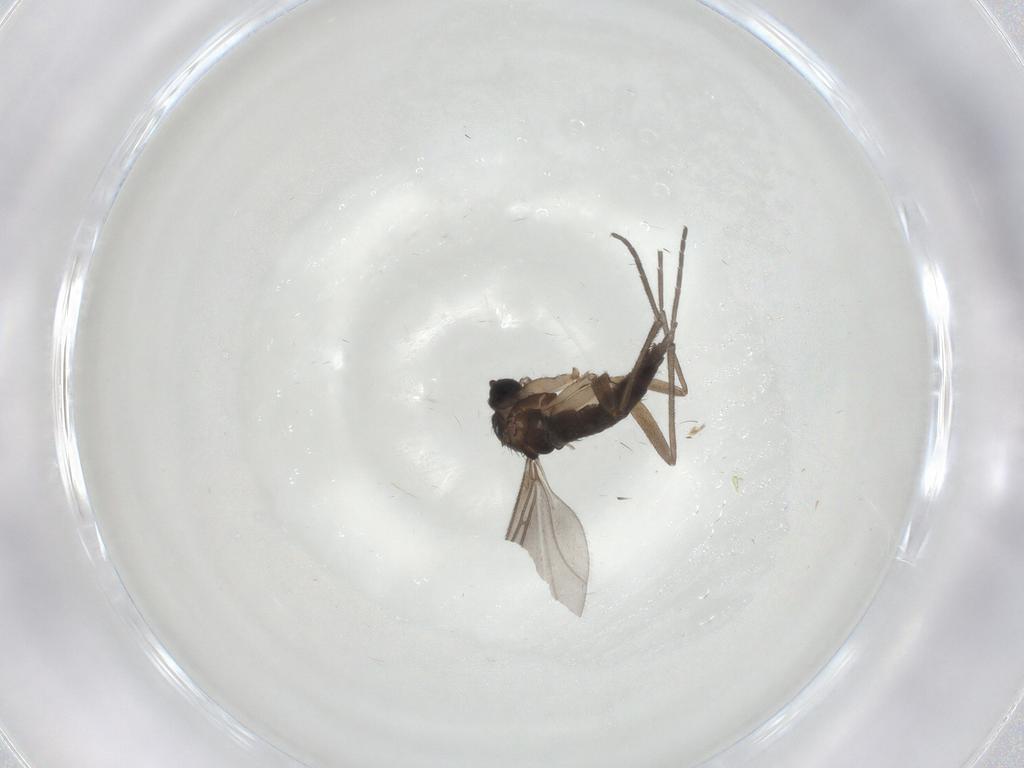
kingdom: Animalia
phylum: Arthropoda
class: Insecta
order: Diptera
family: Sciaridae
